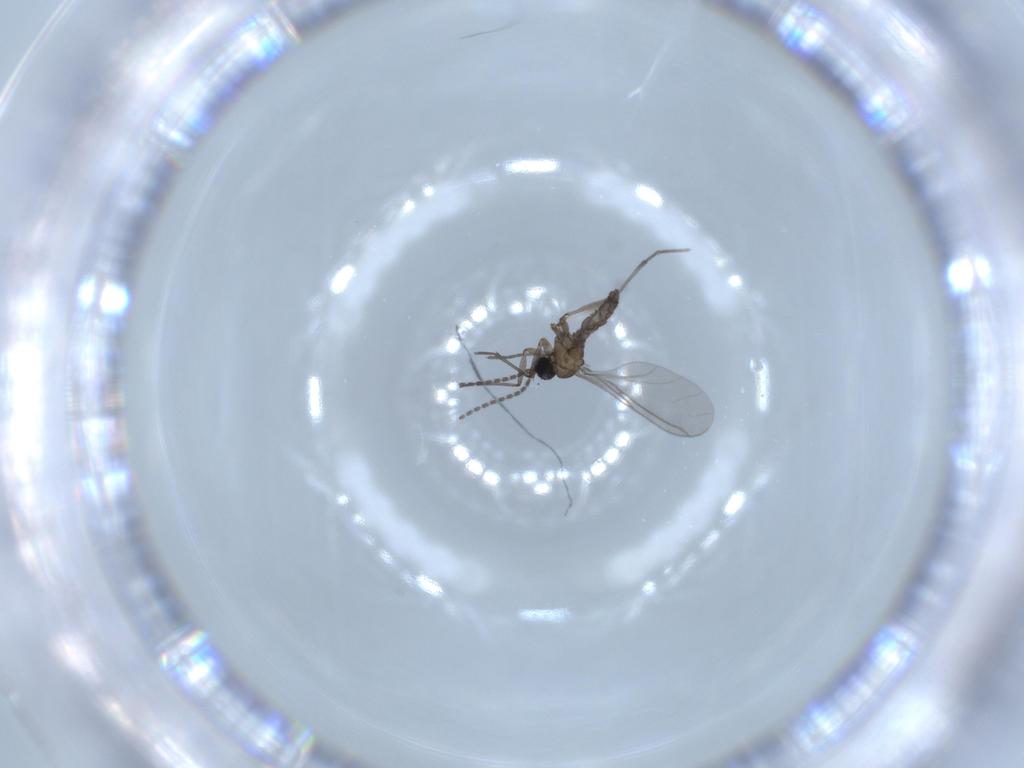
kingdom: Animalia
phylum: Arthropoda
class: Insecta
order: Diptera
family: Sciaridae
